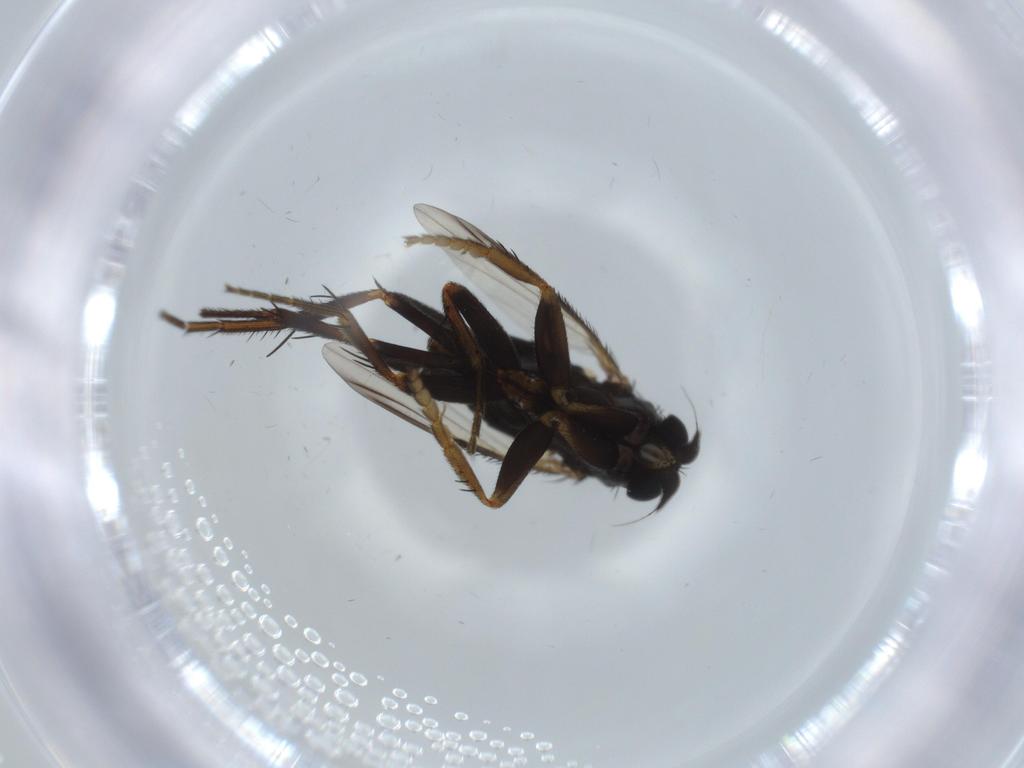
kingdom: Animalia
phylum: Arthropoda
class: Insecta
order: Diptera
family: Phoridae
